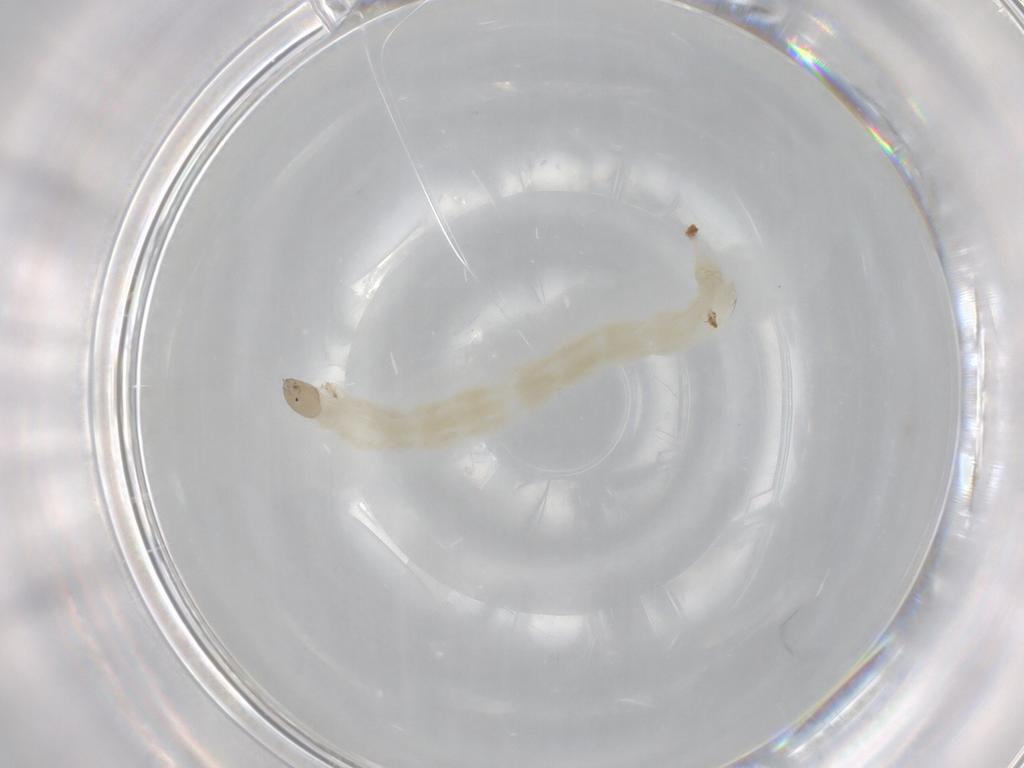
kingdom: Animalia
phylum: Arthropoda
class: Insecta
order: Diptera
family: Chironomidae
